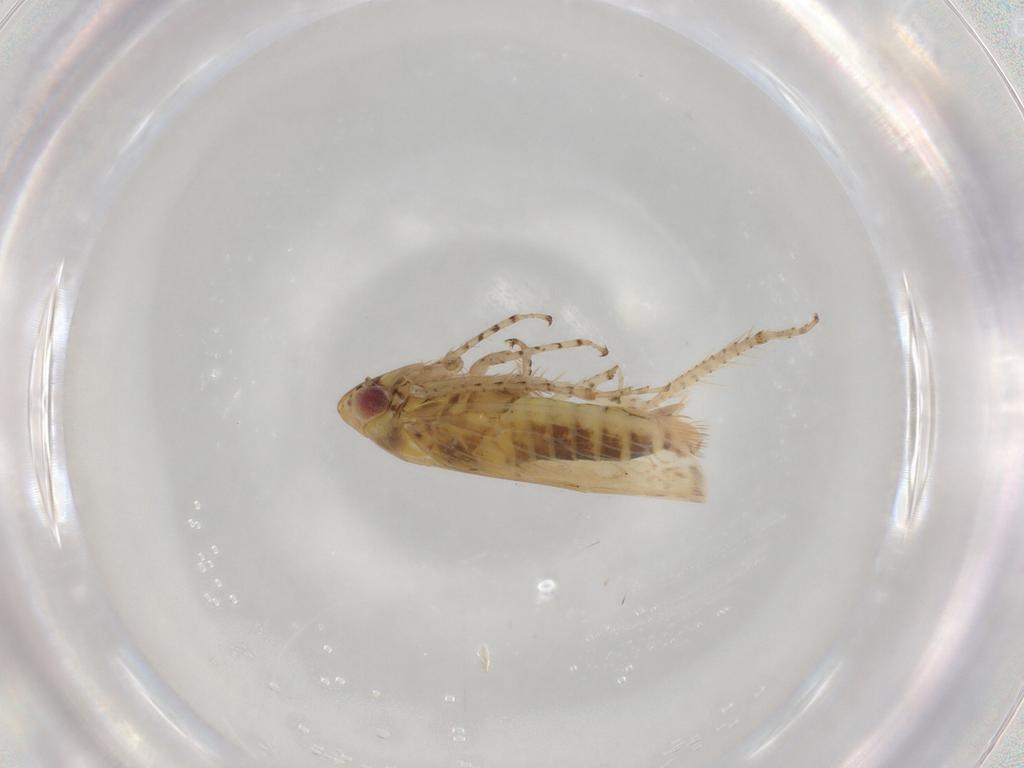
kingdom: Animalia
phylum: Arthropoda
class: Insecta
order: Hemiptera
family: Cicadellidae
